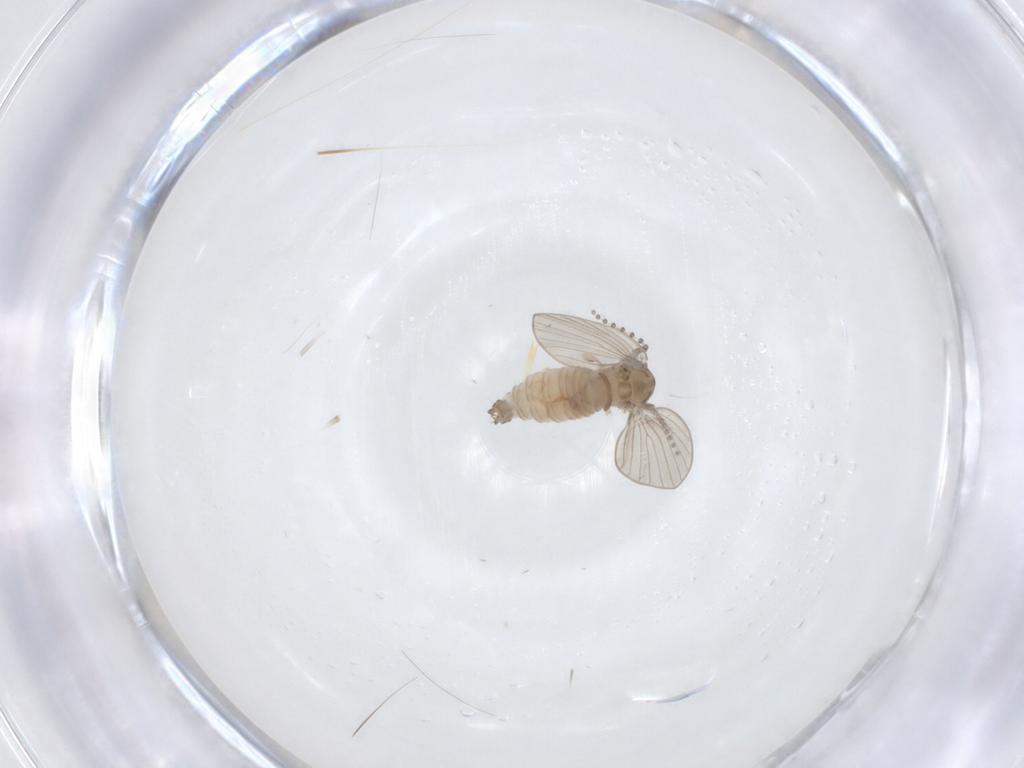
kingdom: Animalia
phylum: Arthropoda
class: Insecta
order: Diptera
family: Psychodidae
